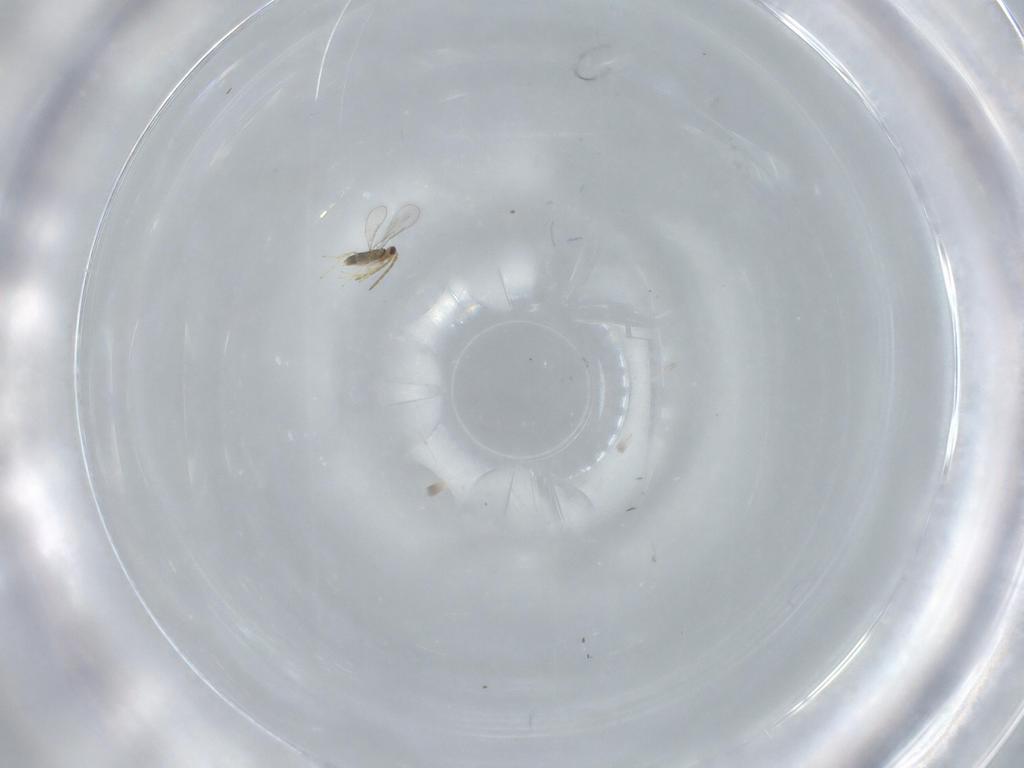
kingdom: Animalia
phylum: Arthropoda
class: Insecta
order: Hymenoptera
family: Aphelinidae
